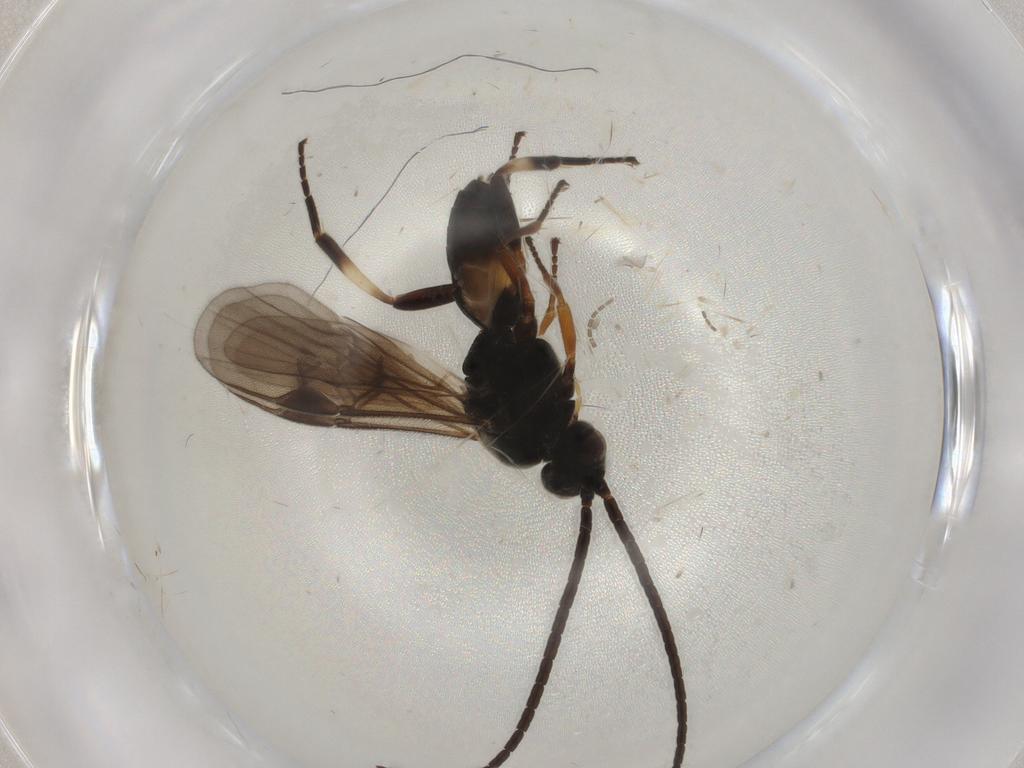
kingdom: Animalia
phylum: Arthropoda
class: Insecta
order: Hymenoptera
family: Braconidae
